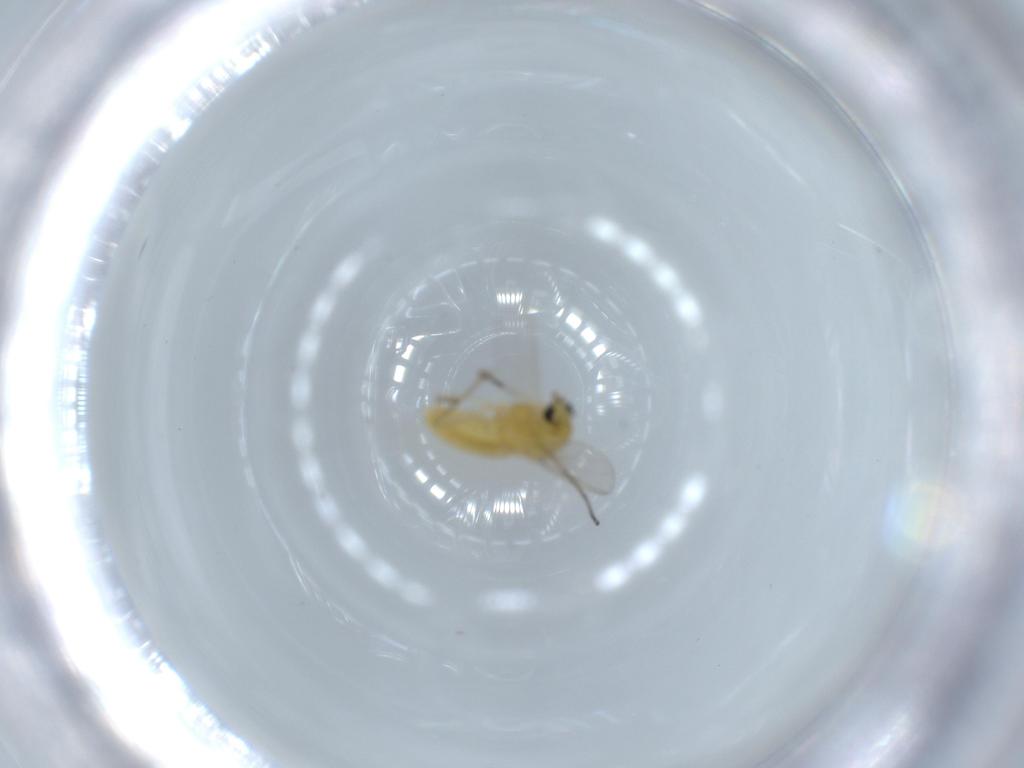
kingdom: Animalia
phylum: Arthropoda
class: Insecta
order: Diptera
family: Chironomidae
